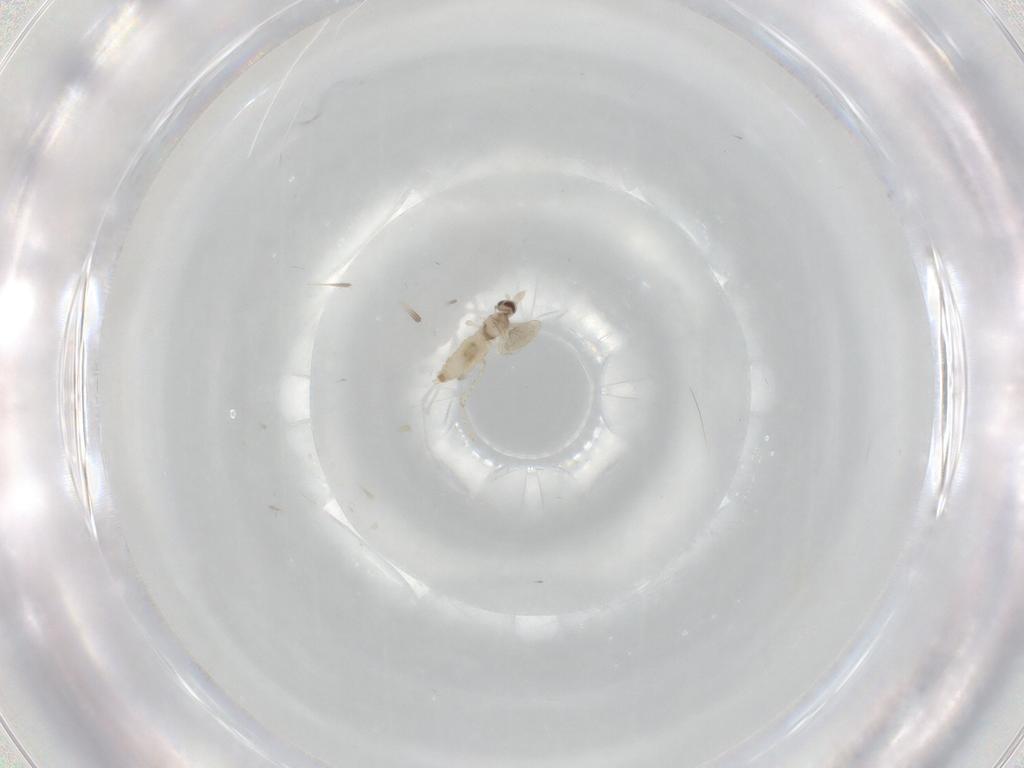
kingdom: Animalia
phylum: Arthropoda
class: Insecta
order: Diptera
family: Cecidomyiidae
